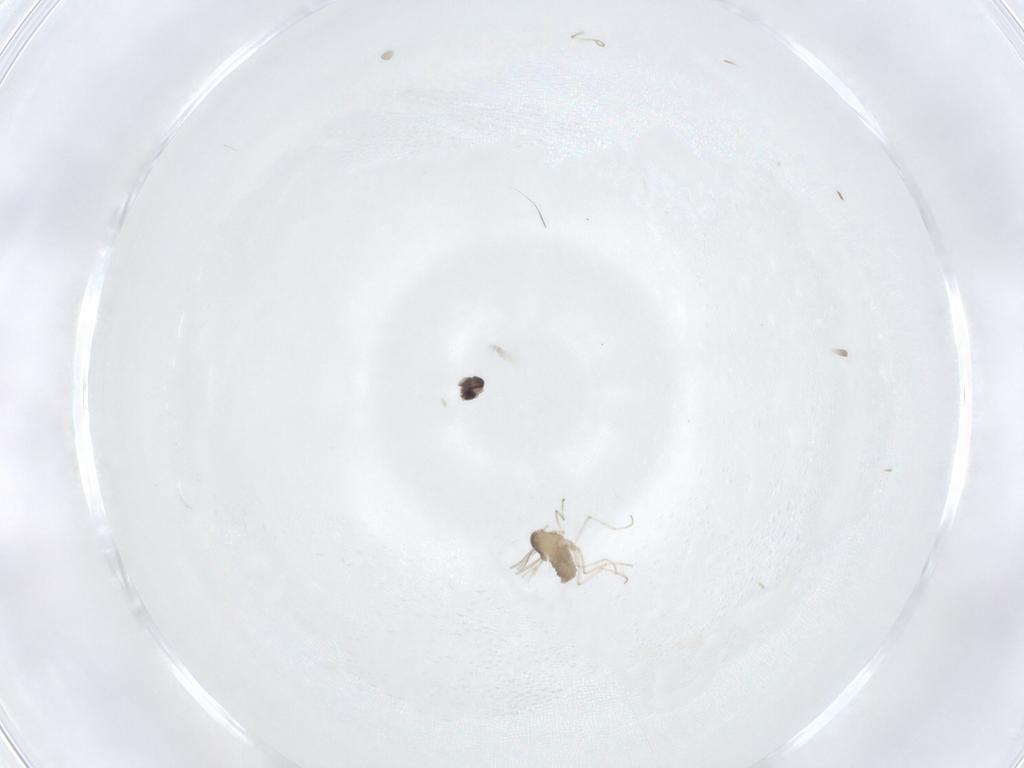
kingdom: Animalia
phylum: Arthropoda
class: Insecta
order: Diptera
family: Cecidomyiidae
